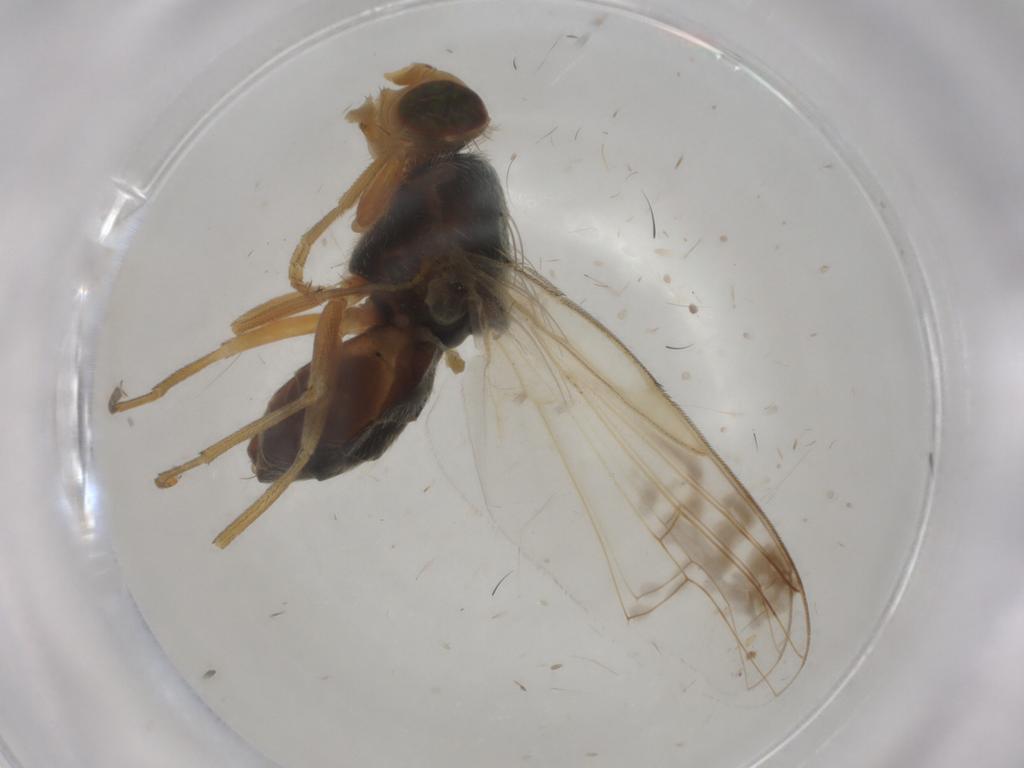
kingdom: Animalia
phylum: Arthropoda
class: Insecta
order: Diptera
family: Tephritidae
